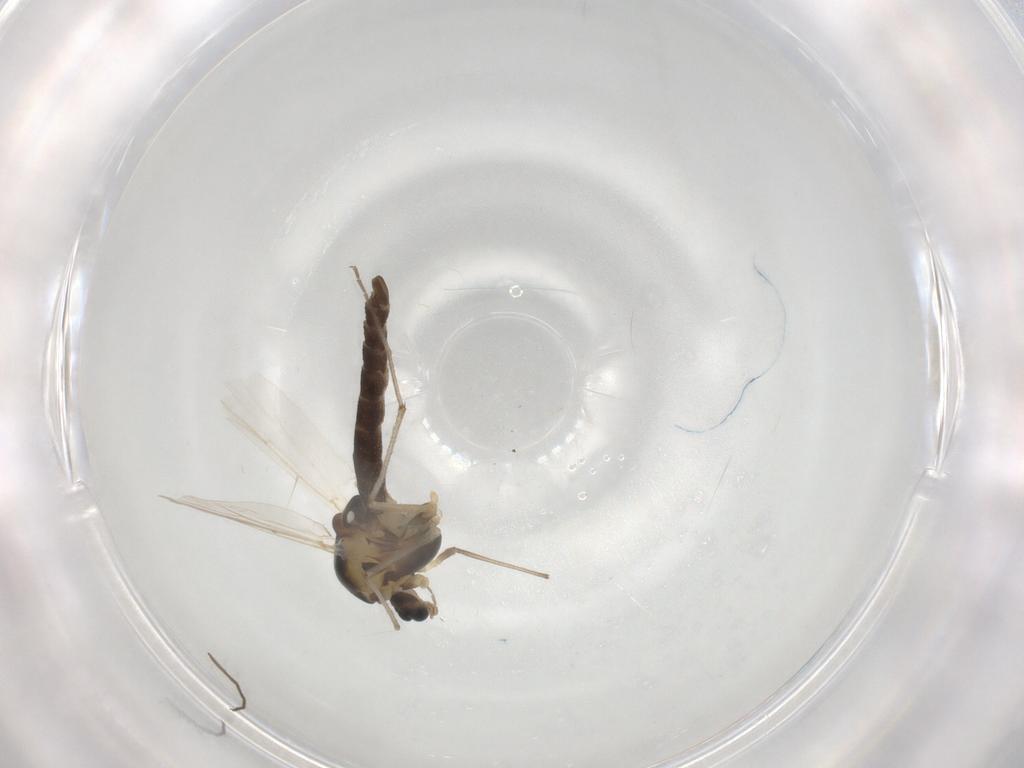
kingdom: Animalia
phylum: Arthropoda
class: Insecta
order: Diptera
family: Chironomidae
